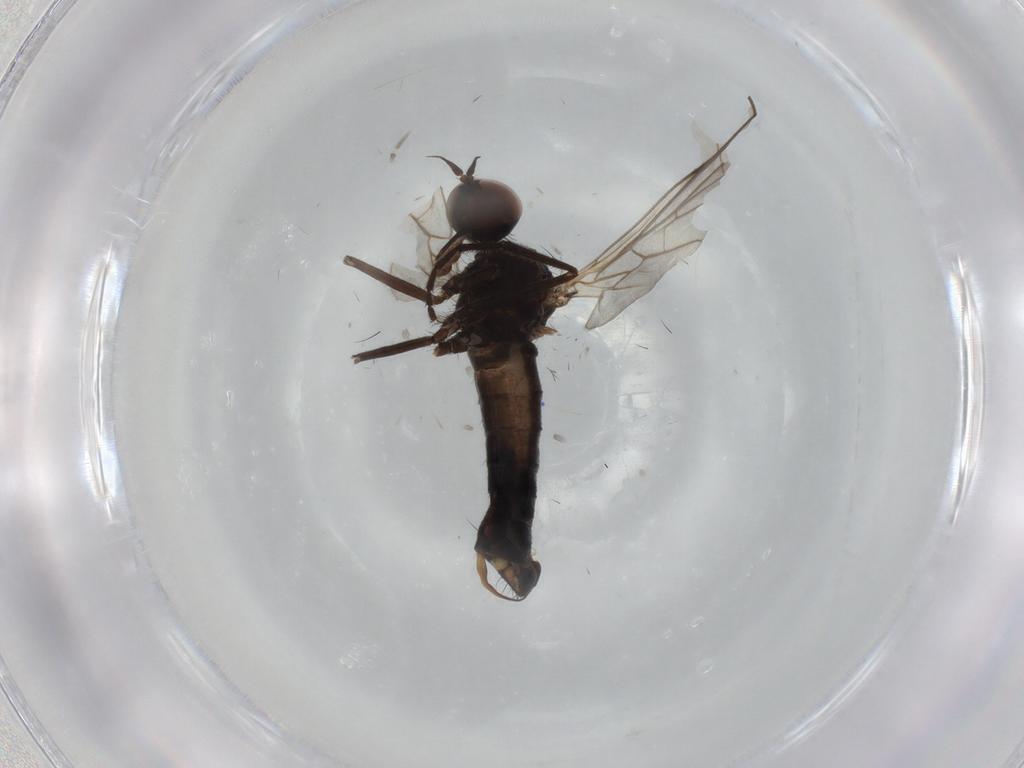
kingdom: Animalia
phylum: Arthropoda
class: Insecta
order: Diptera
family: Empididae
